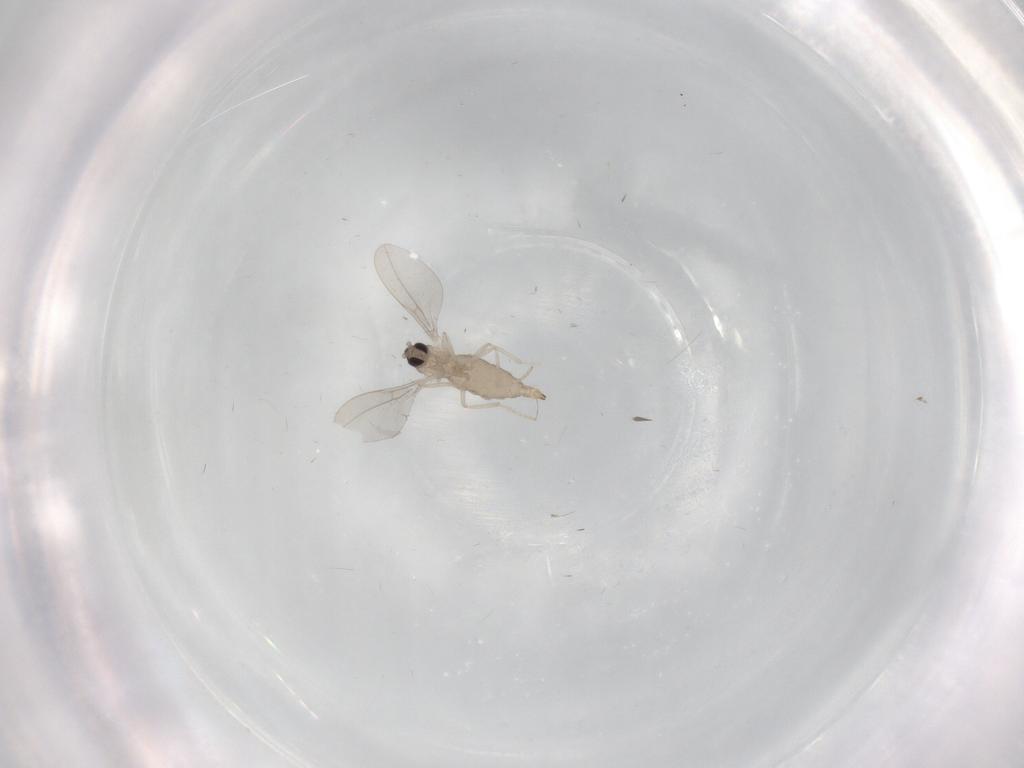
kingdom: Animalia
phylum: Arthropoda
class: Insecta
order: Diptera
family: Cecidomyiidae
